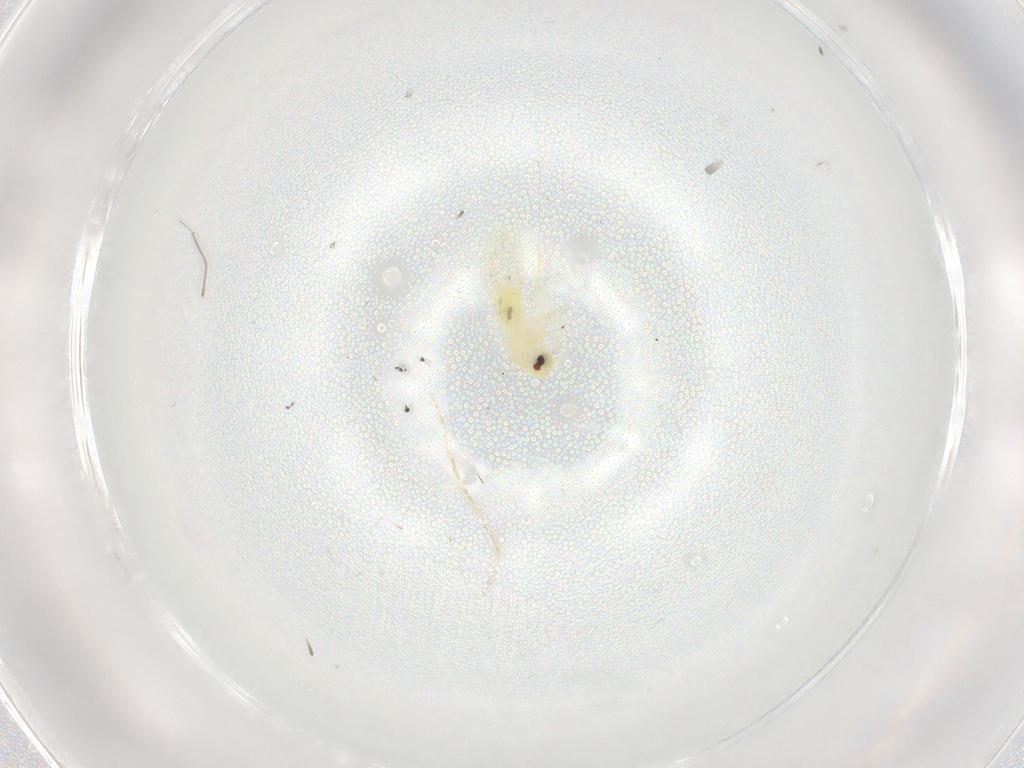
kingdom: Animalia
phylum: Arthropoda
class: Insecta
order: Hemiptera
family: Aleyrodidae
